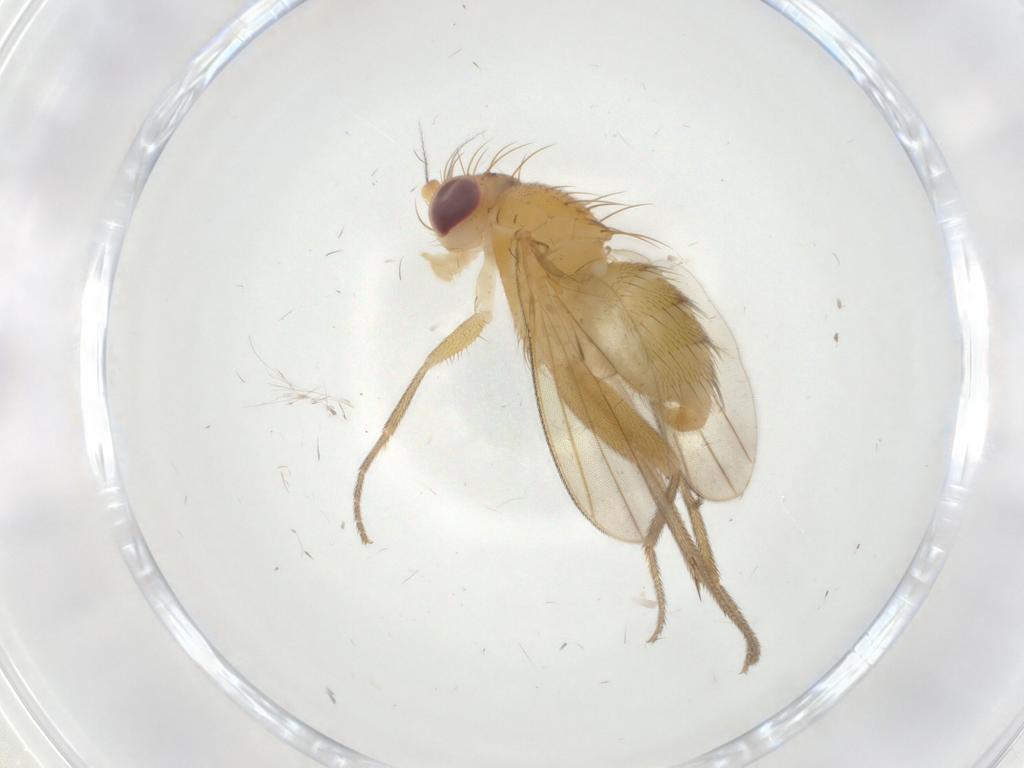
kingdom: Animalia
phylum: Arthropoda
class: Insecta
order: Diptera
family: Clusiidae
